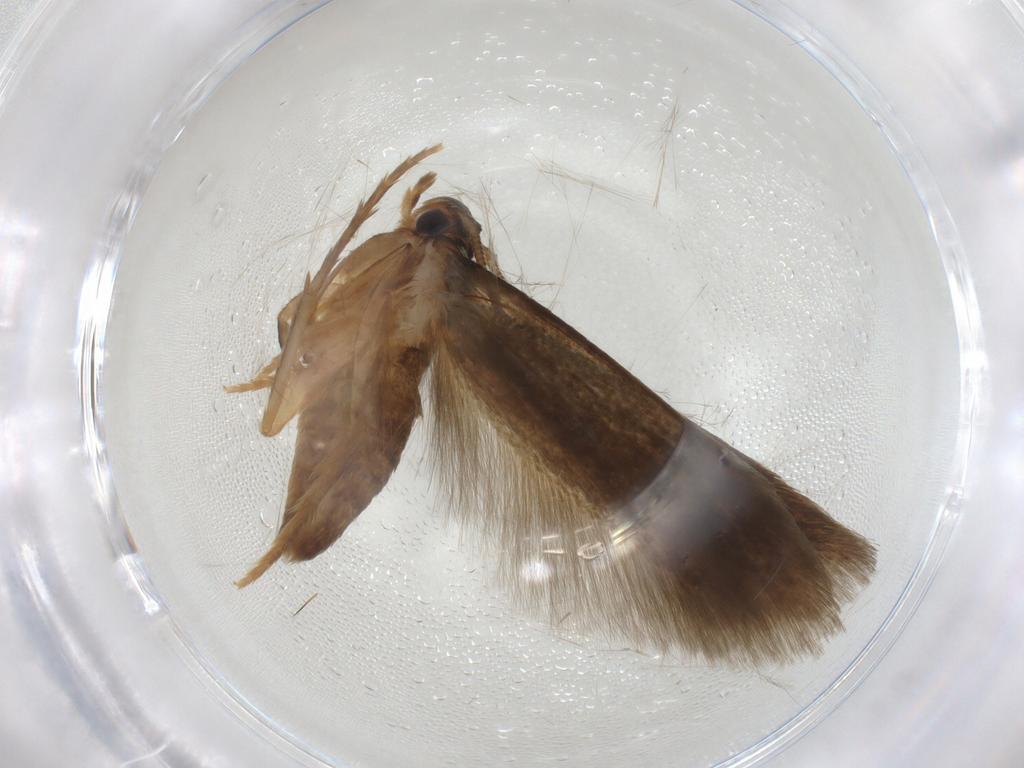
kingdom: Animalia
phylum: Arthropoda
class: Insecta
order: Lepidoptera
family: Tineidae
